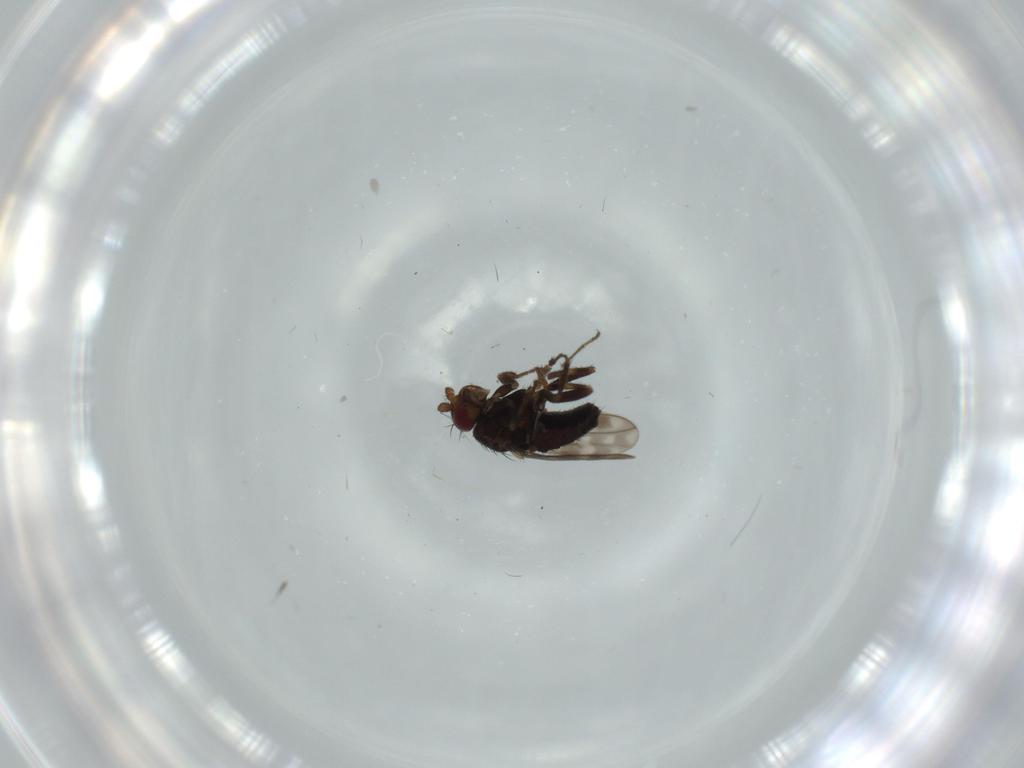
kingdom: Animalia
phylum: Arthropoda
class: Insecta
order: Diptera
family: Sphaeroceridae
